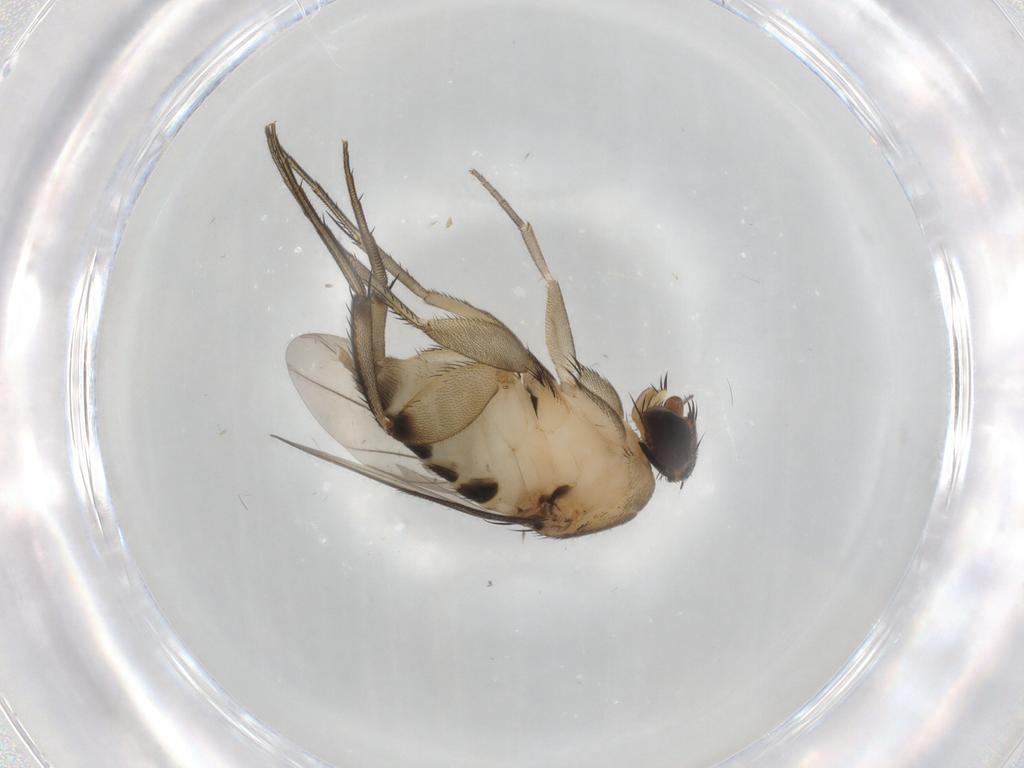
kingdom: Animalia
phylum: Arthropoda
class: Insecta
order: Diptera
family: Phoridae
